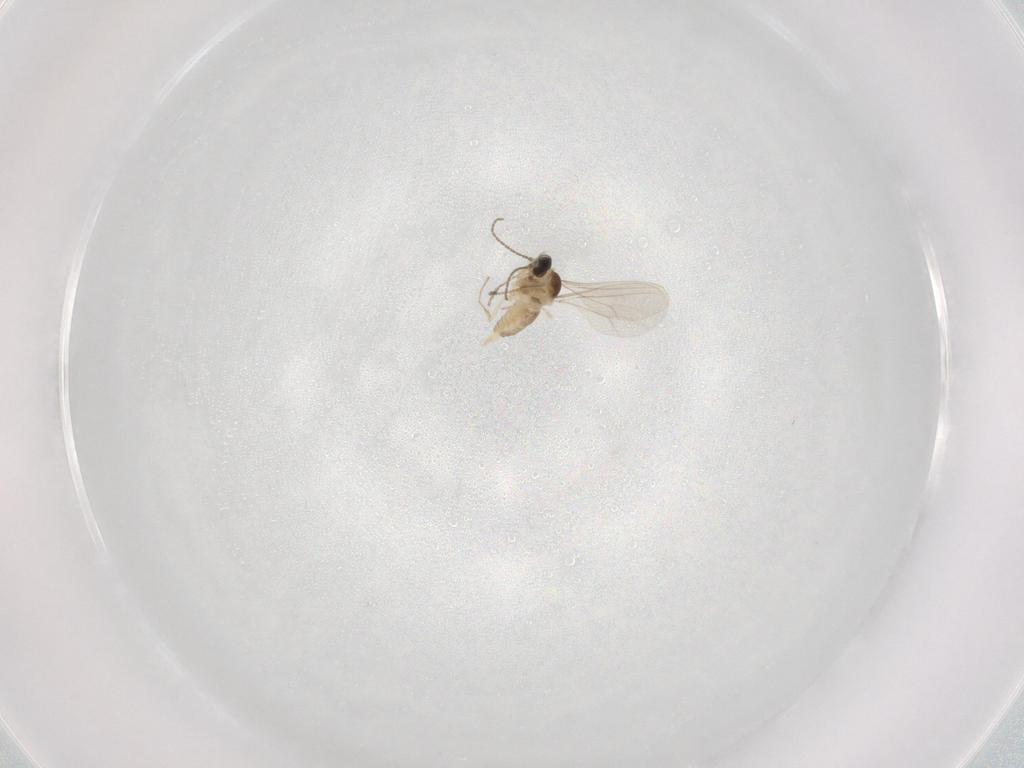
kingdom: Animalia
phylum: Arthropoda
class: Insecta
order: Diptera
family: Cecidomyiidae
